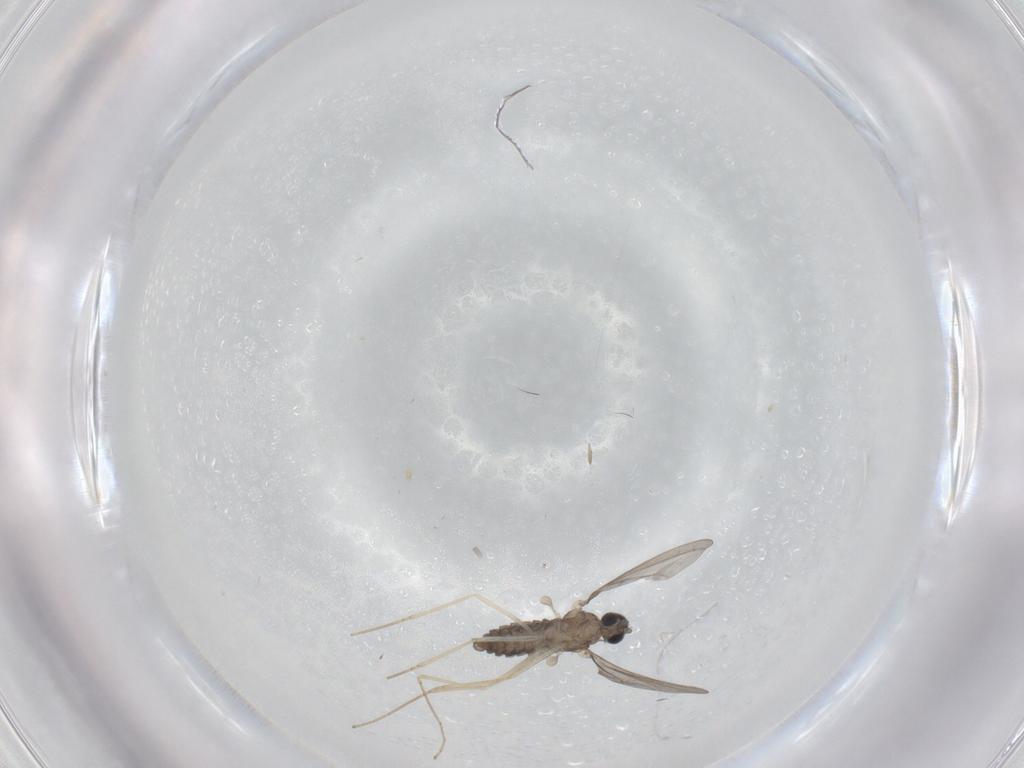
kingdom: Animalia
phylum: Arthropoda
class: Insecta
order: Diptera
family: Cecidomyiidae
